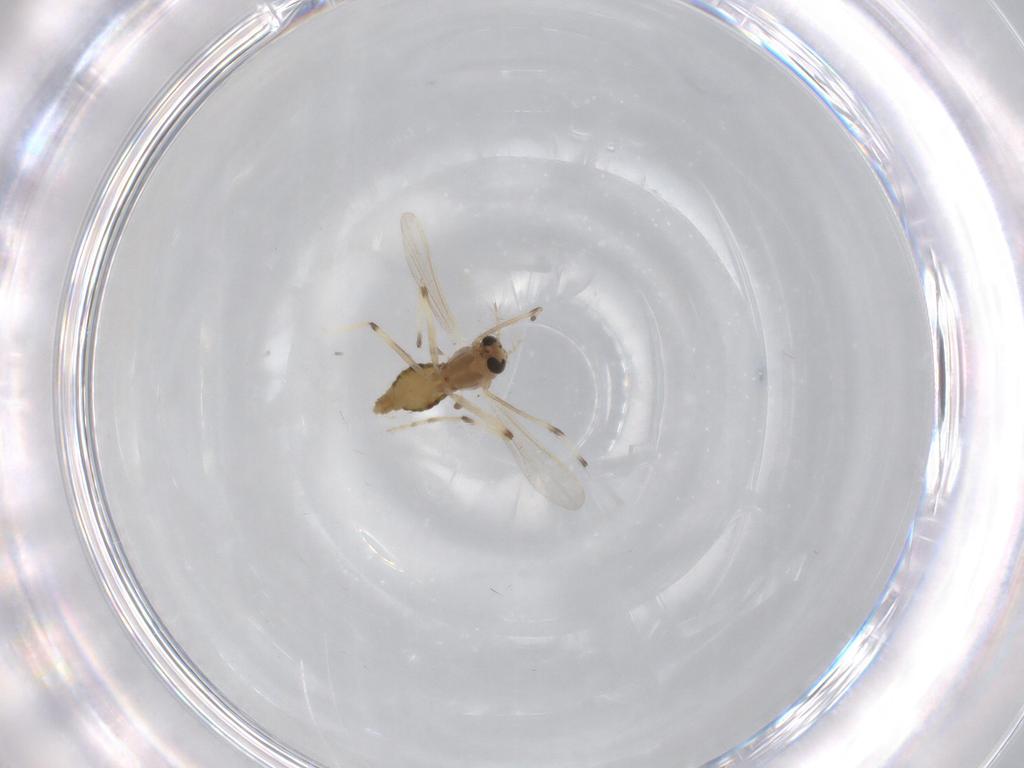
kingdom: Animalia
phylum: Arthropoda
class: Insecta
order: Diptera
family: Chironomidae
